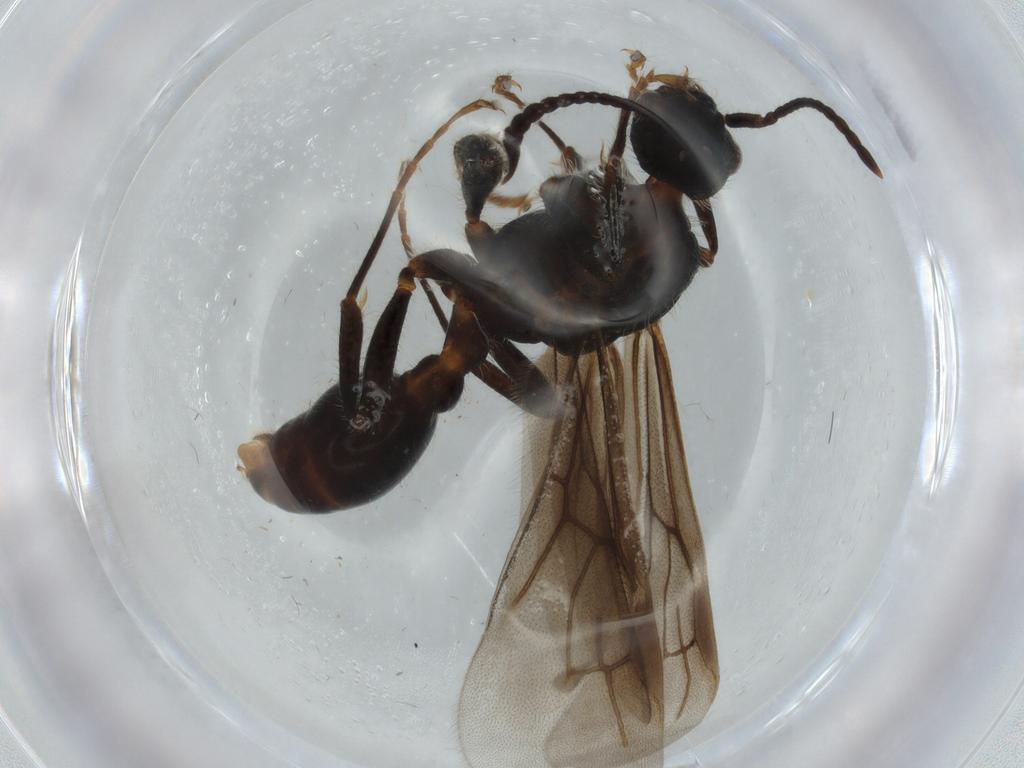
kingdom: Animalia
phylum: Arthropoda
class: Insecta
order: Hymenoptera
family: Formicidae
